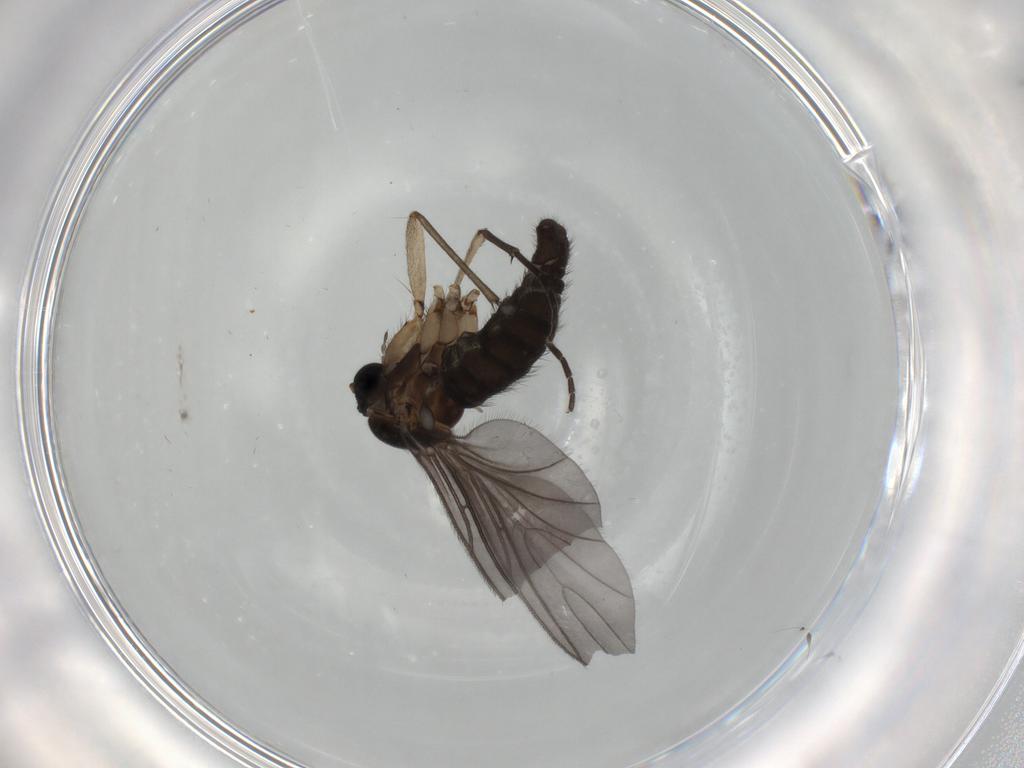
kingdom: Animalia
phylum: Arthropoda
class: Insecta
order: Diptera
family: Sciaridae
